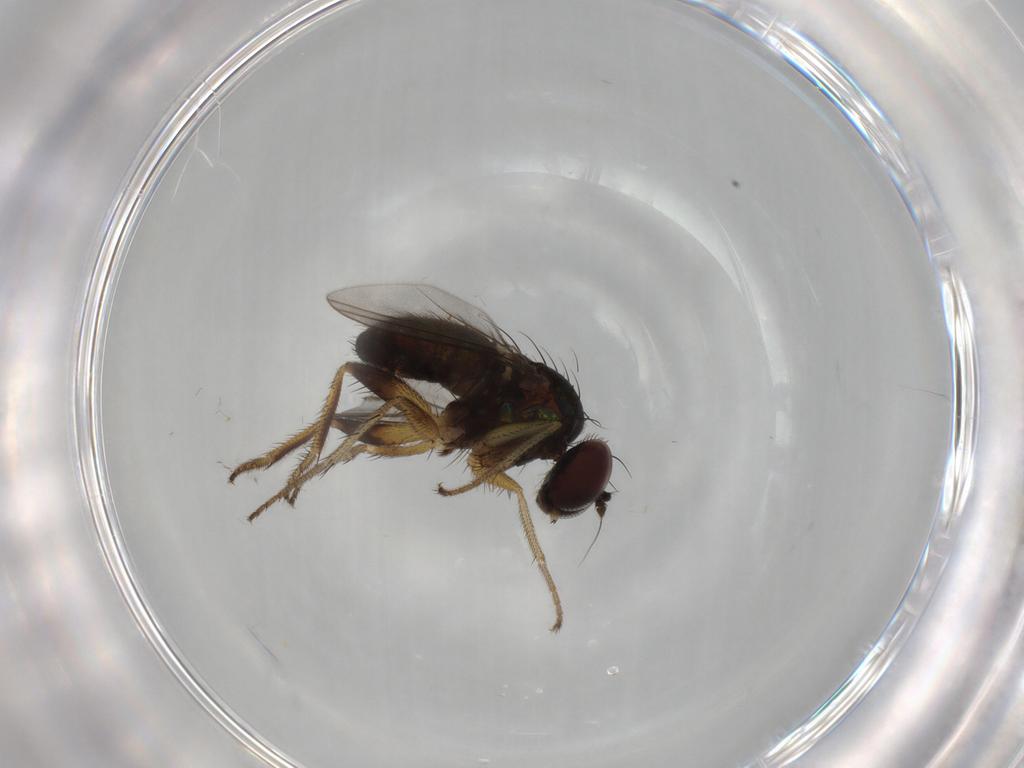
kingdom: Animalia
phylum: Arthropoda
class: Insecta
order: Diptera
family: Dolichopodidae
